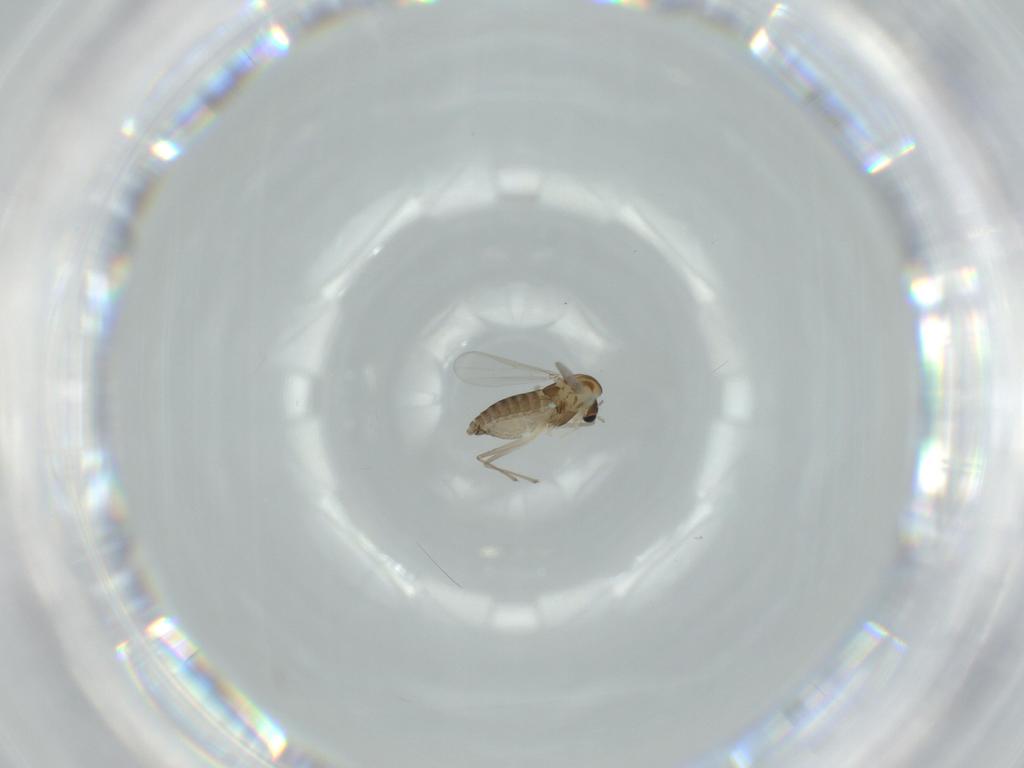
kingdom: Animalia
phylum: Arthropoda
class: Insecta
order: Diptera
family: Chironomidae
